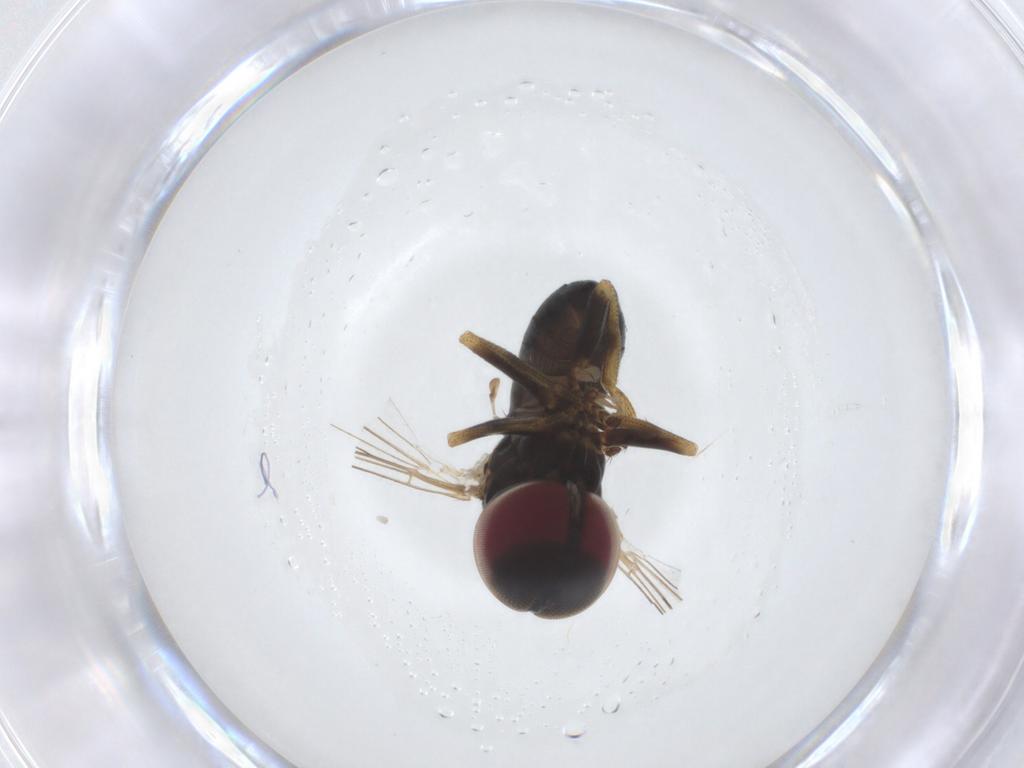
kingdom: Animalia
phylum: Arthropoda
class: Insecta
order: Diptera
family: Pipunculidae
